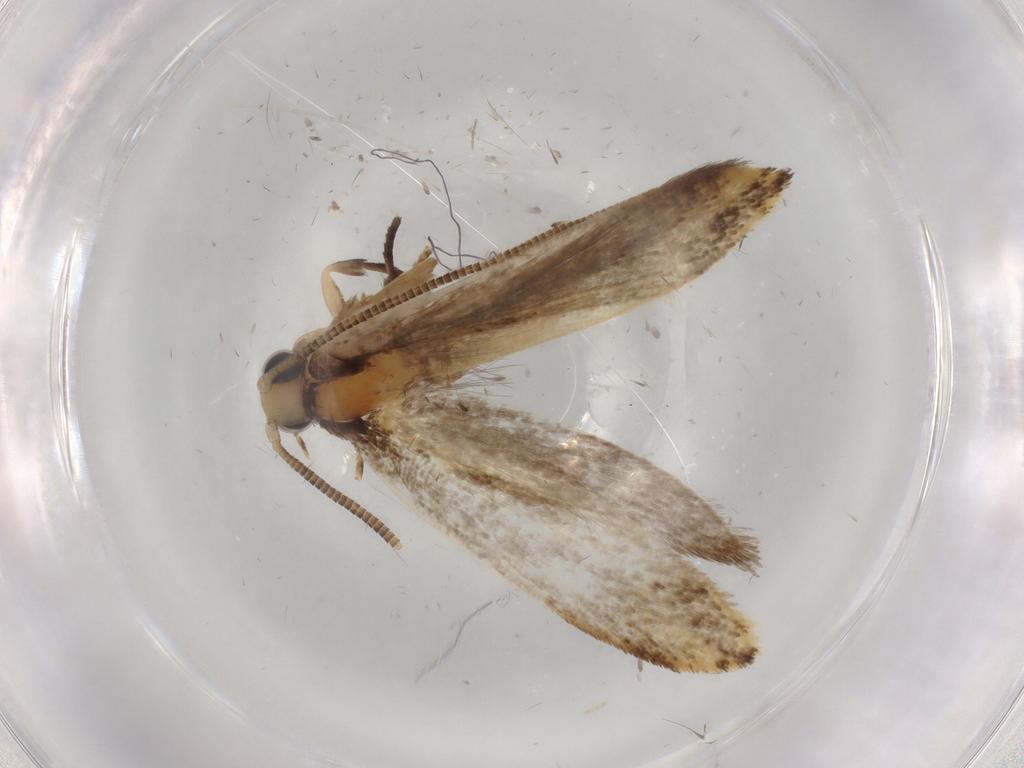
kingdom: Animalia
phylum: Arthropoda
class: Insecta
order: Lepidoptera
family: Tineidae
